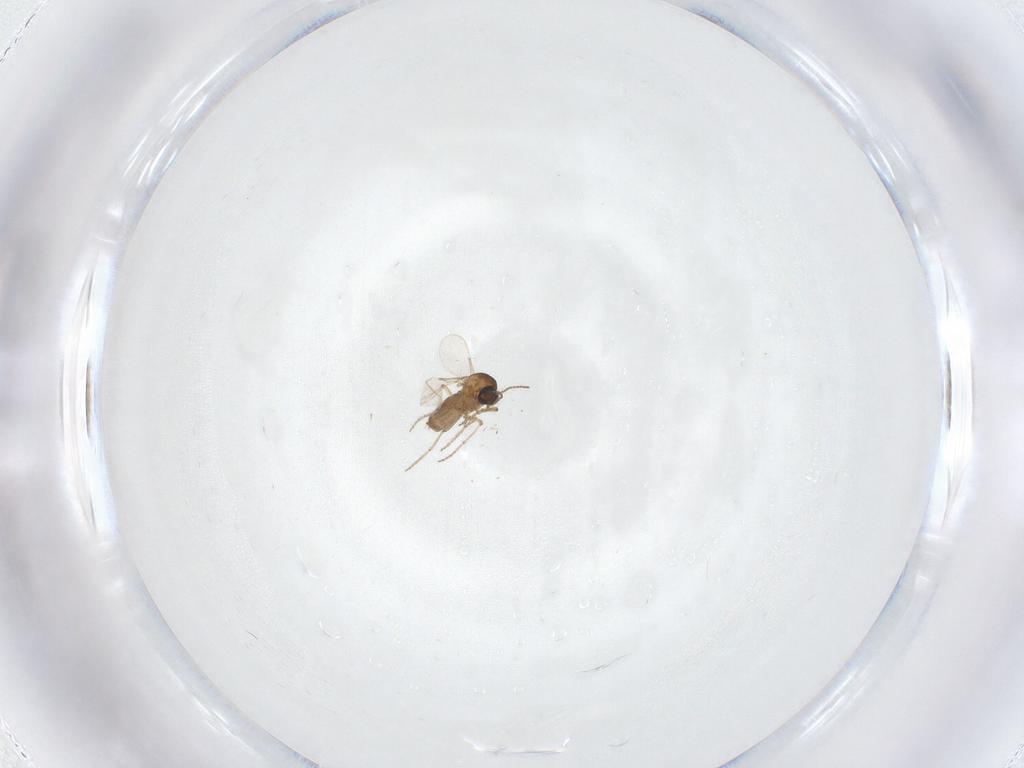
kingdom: Animalia
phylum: Arthropoda
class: Insecta
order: Diptera
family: Ceratopogonidae
